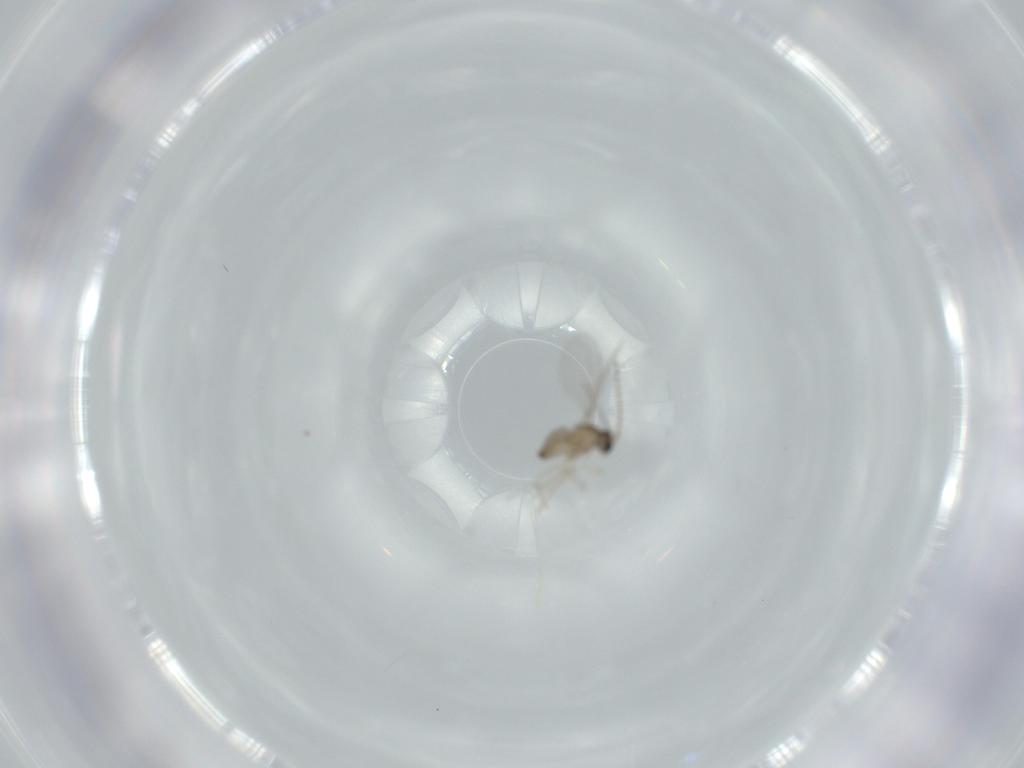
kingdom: Animalia
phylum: Arthropoda
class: Insecta
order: Diptera
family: Cecidomyiidae
